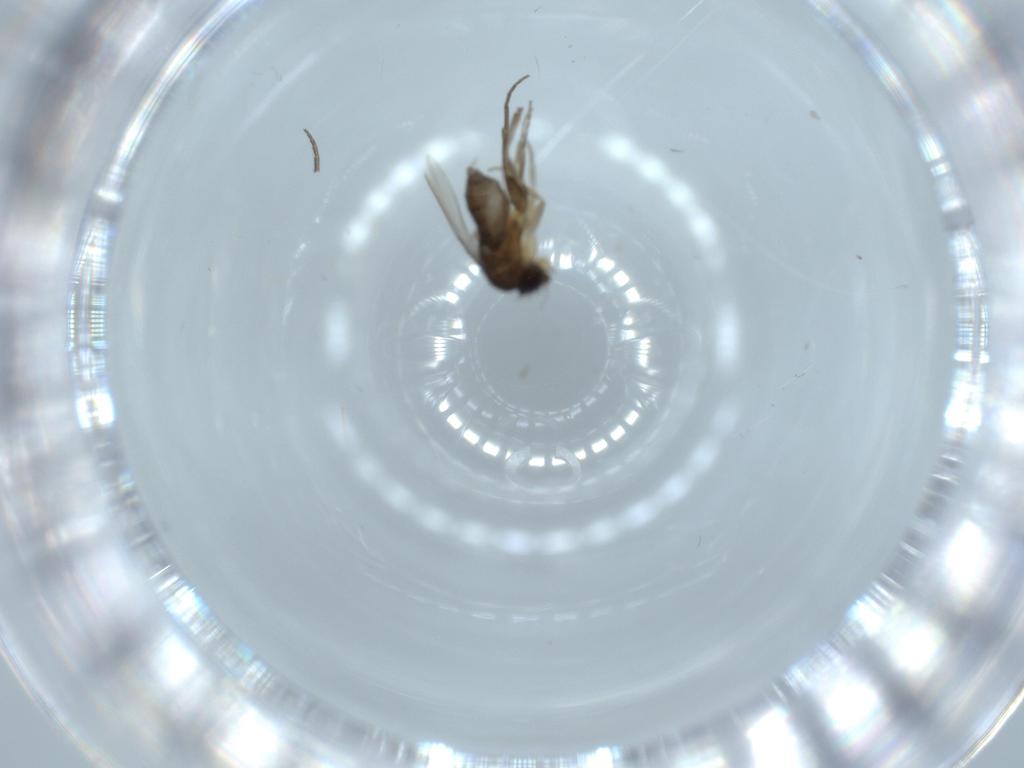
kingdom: Animalia
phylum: Arthropoda
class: Insecta
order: Diptera
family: Phoridae
